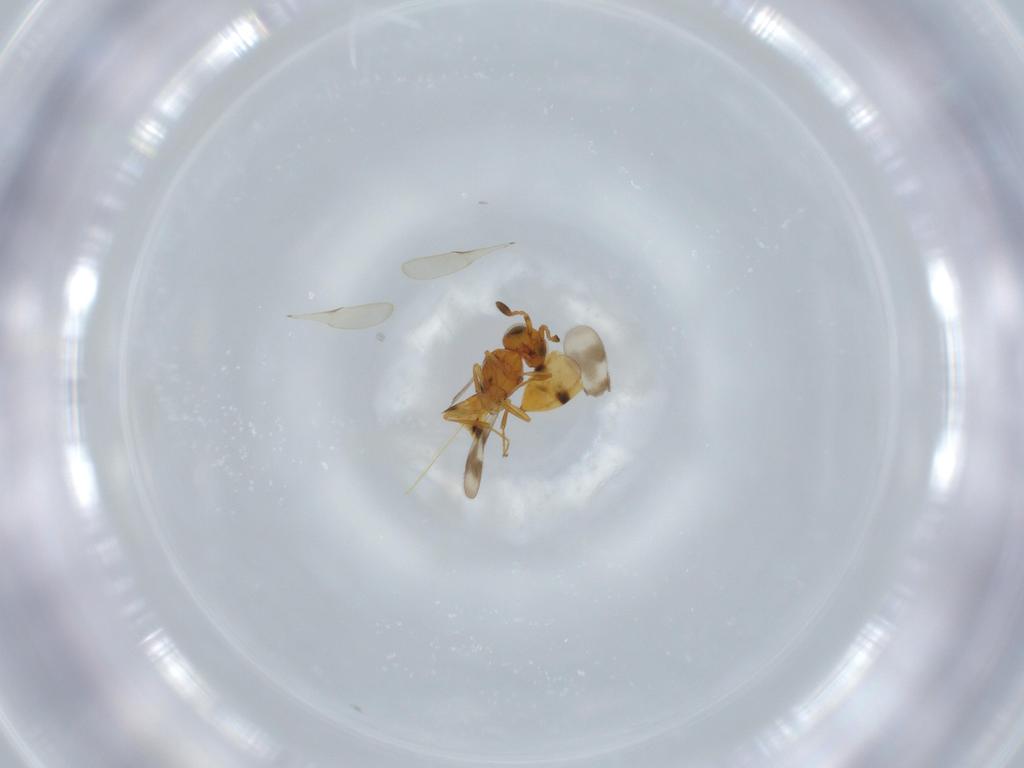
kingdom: Animalia
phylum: Arthropoda
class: Insecta
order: Hymenoptera
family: Scelionidae
